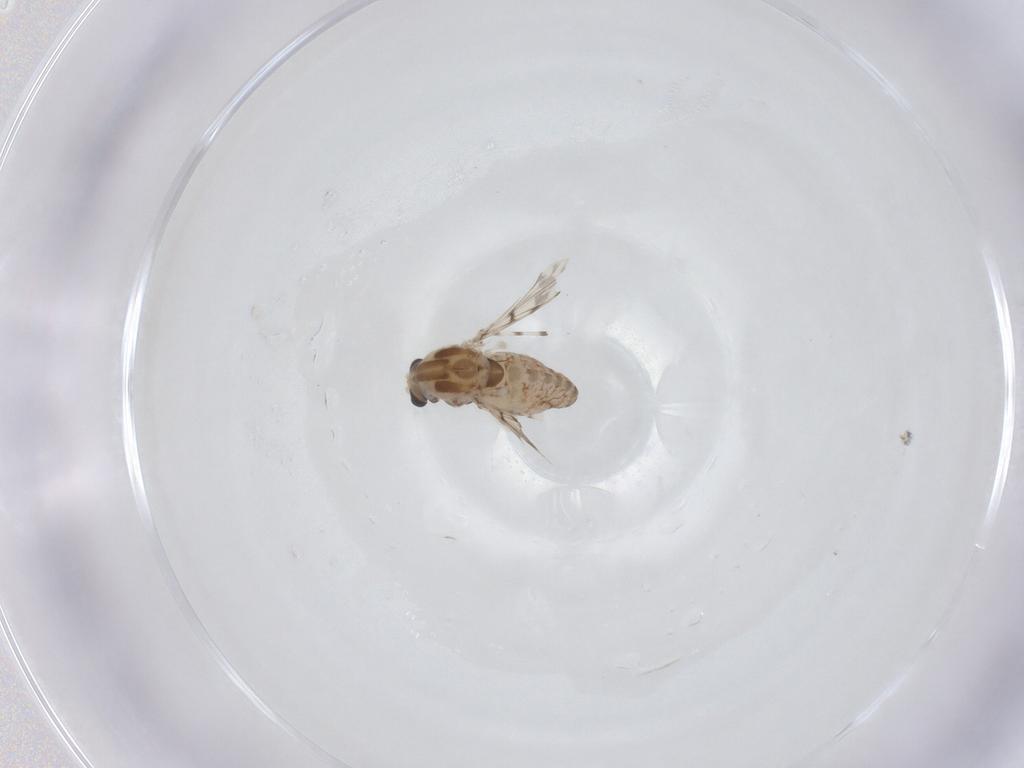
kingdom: Animalia
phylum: Arthropoda
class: Insecta
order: Diptera
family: Chironomidae
